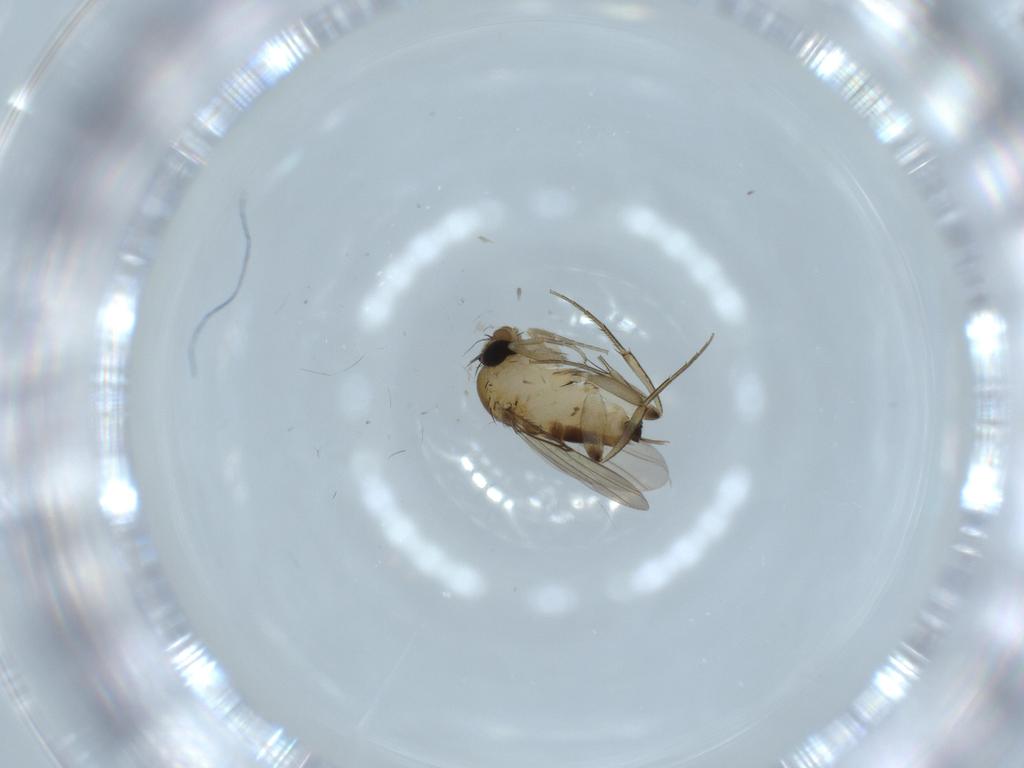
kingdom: Animalia
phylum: Arthropoda
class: Insecta
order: Diptera
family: Phoridae
